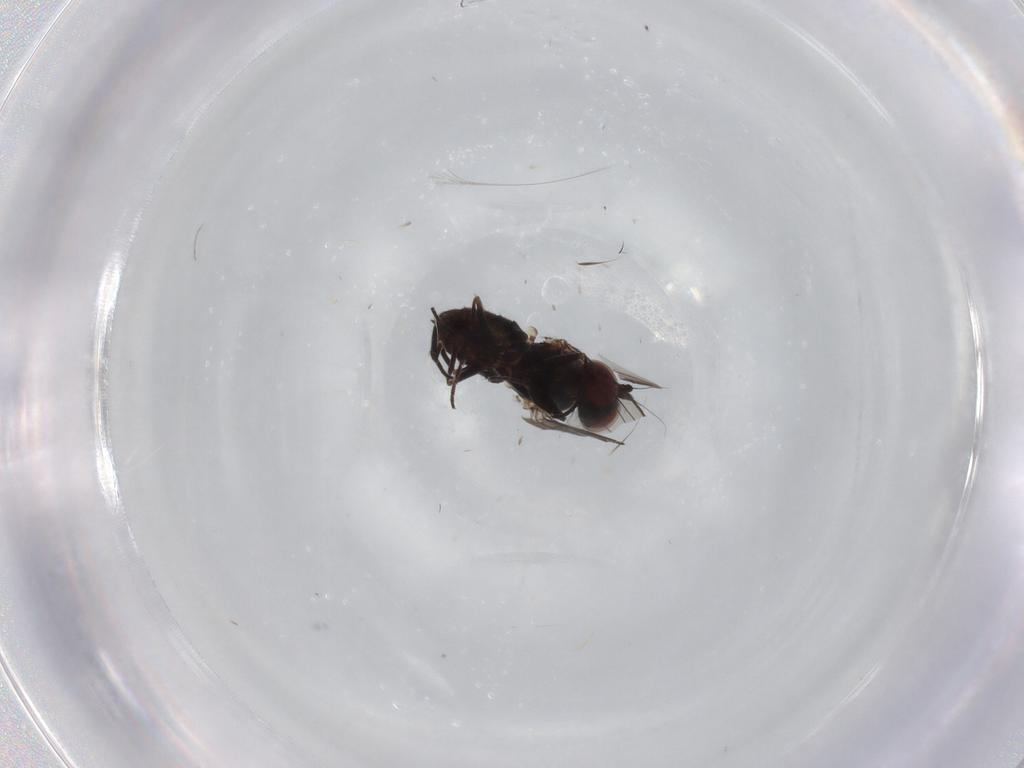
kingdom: Animalia
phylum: Arthropoda
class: Insecta
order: Diptera
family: Dolichopodidae
